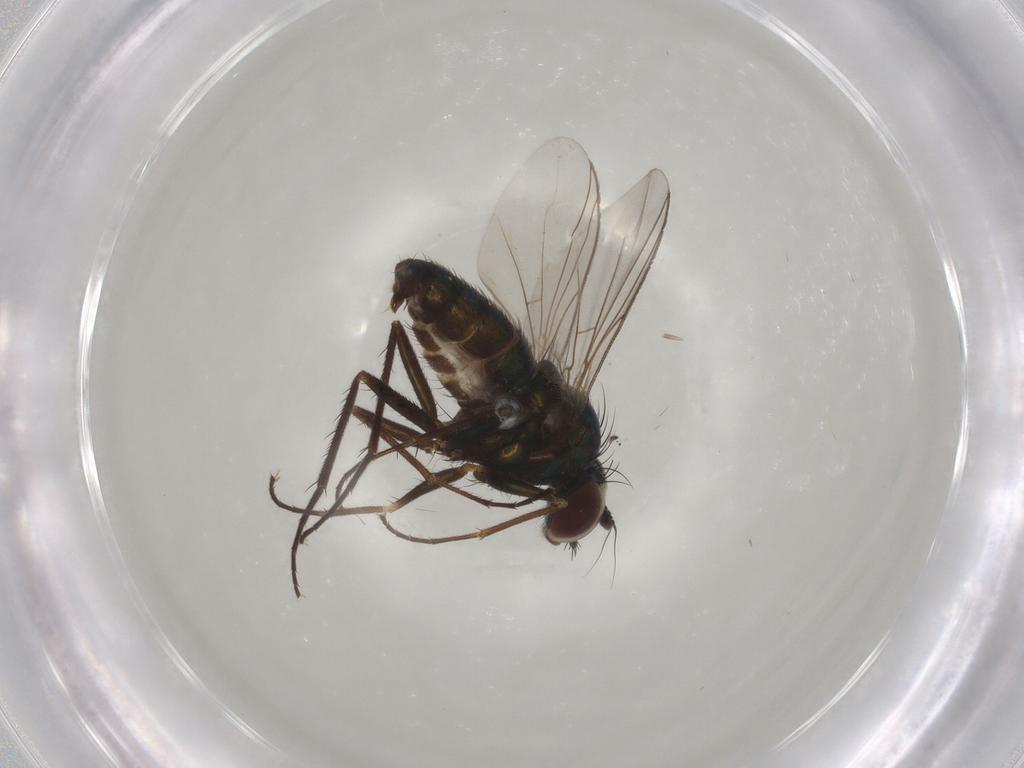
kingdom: Animalia
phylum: Arthropoda
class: Insecta
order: Diptera
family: Dolichopodidae
